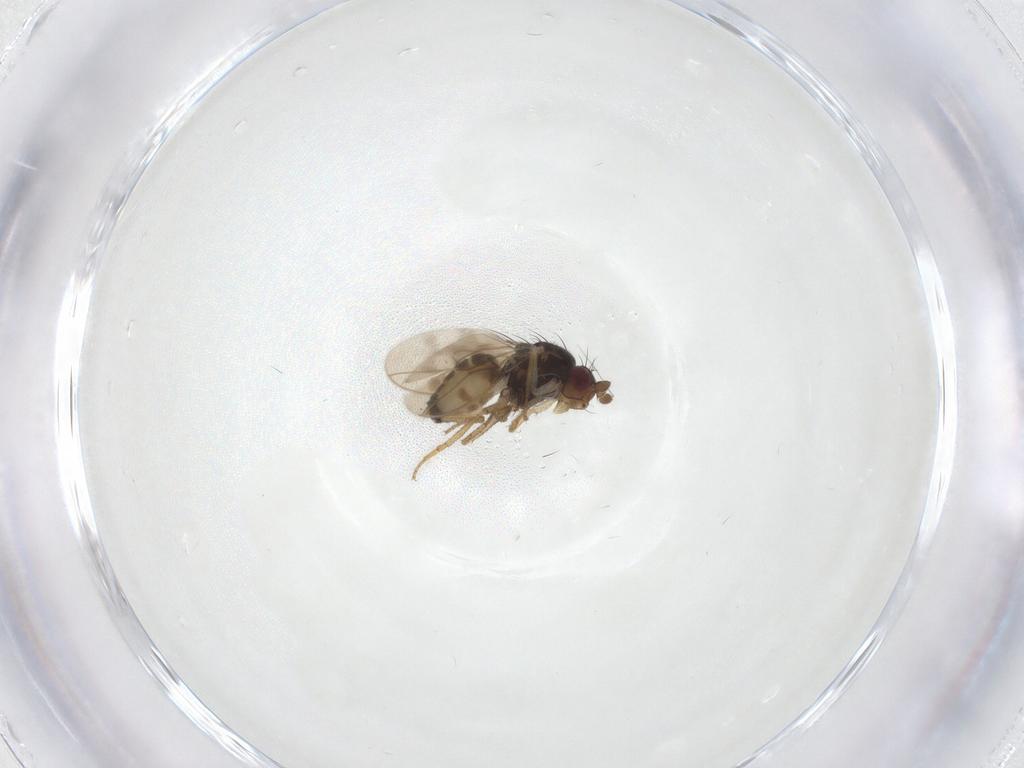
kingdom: Animalia
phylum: Arthropoda
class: Insecta
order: Diptera
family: Sphaeroceridae
